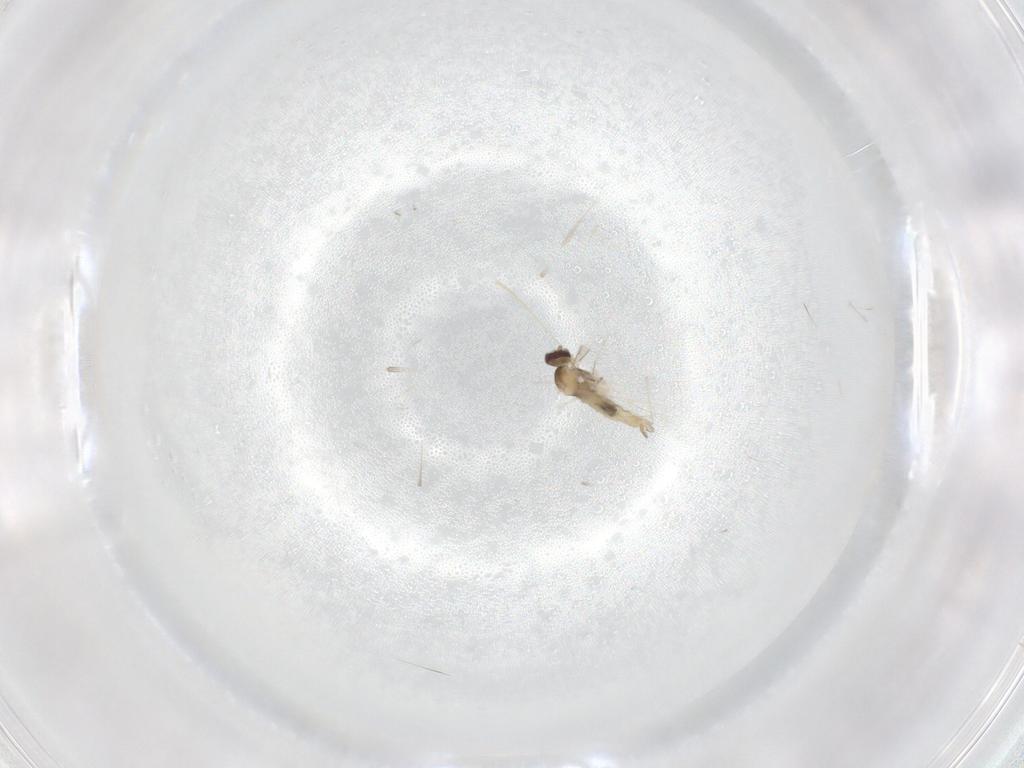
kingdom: Animalia
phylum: Arthropoda
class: Insecta
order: Diptera
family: Cecidomyiidae
